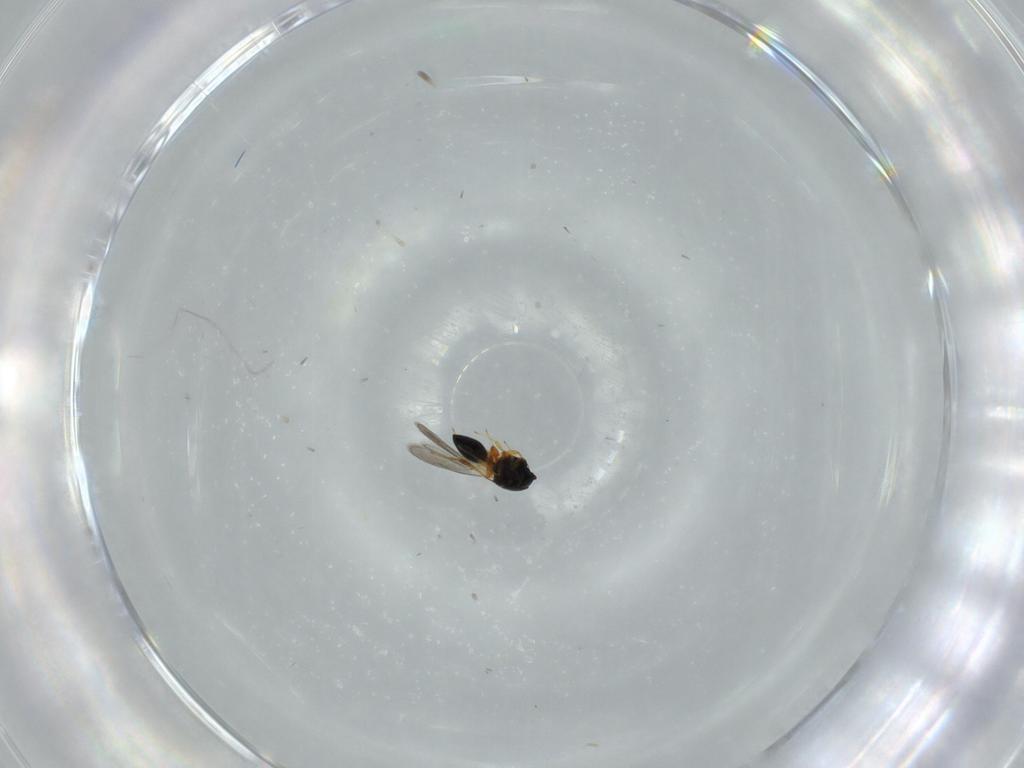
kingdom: Animalia
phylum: Arthropoda
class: Insecta
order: Hymenoptera
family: Platygastridae
